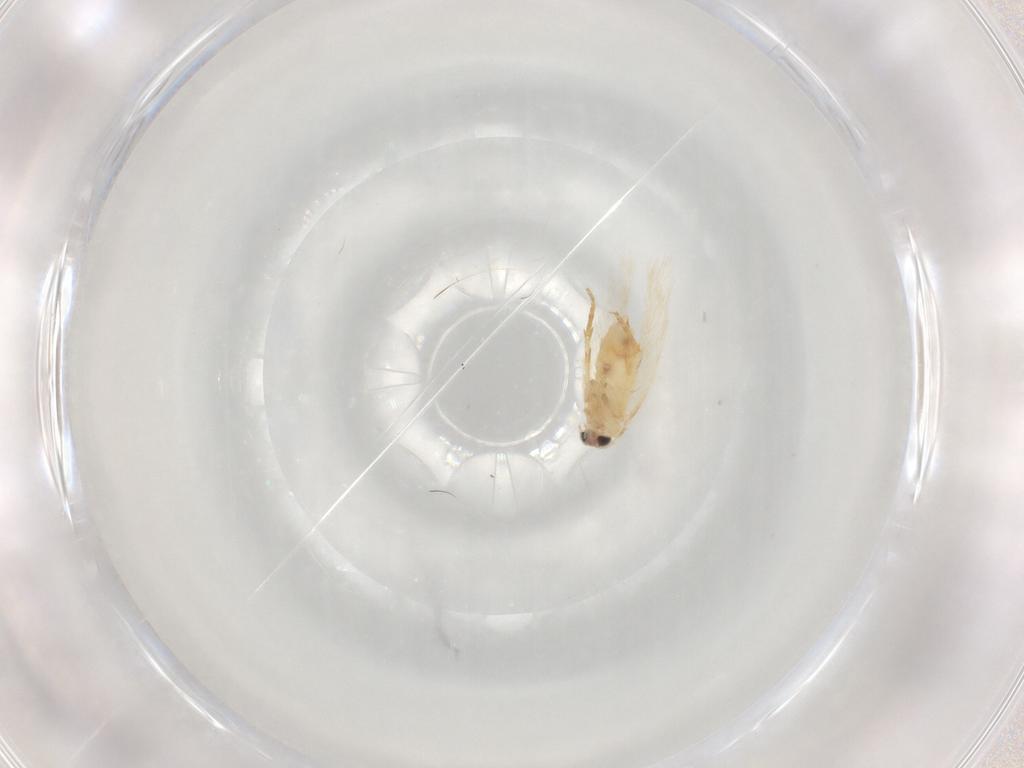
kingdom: Animalia
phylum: Arthropoda
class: Insecta
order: Lepidoptera
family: Nepticulidae
